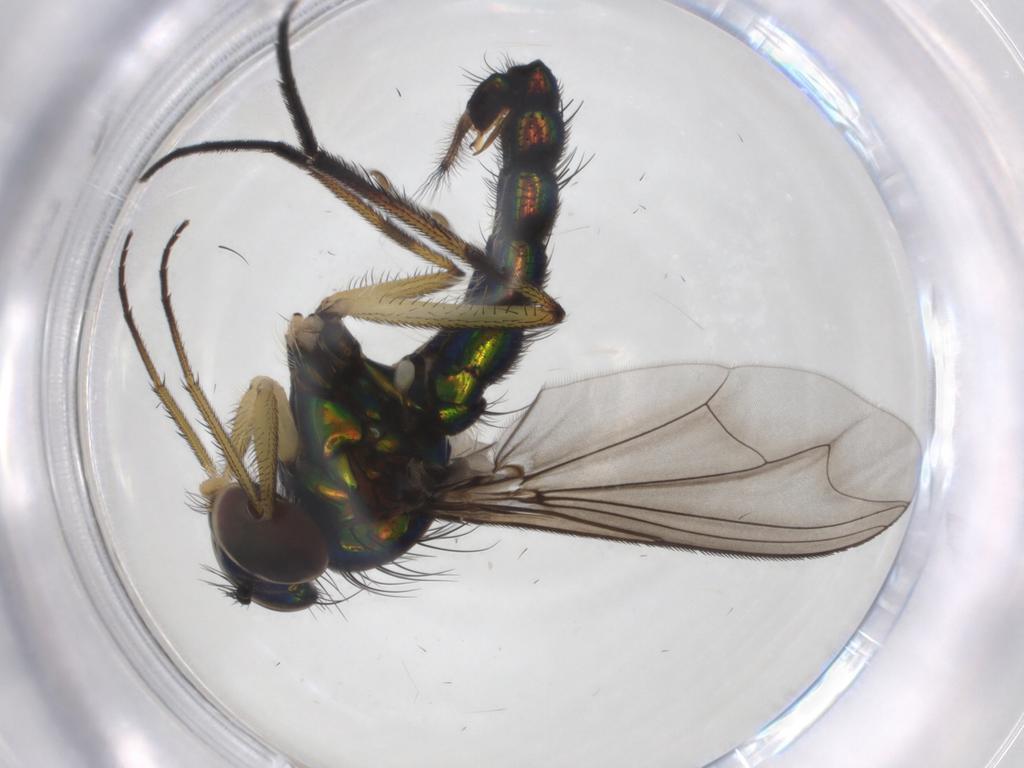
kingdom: Animalia
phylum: Arthropoda
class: Insecta
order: Diptera
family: Dolichopodidae
